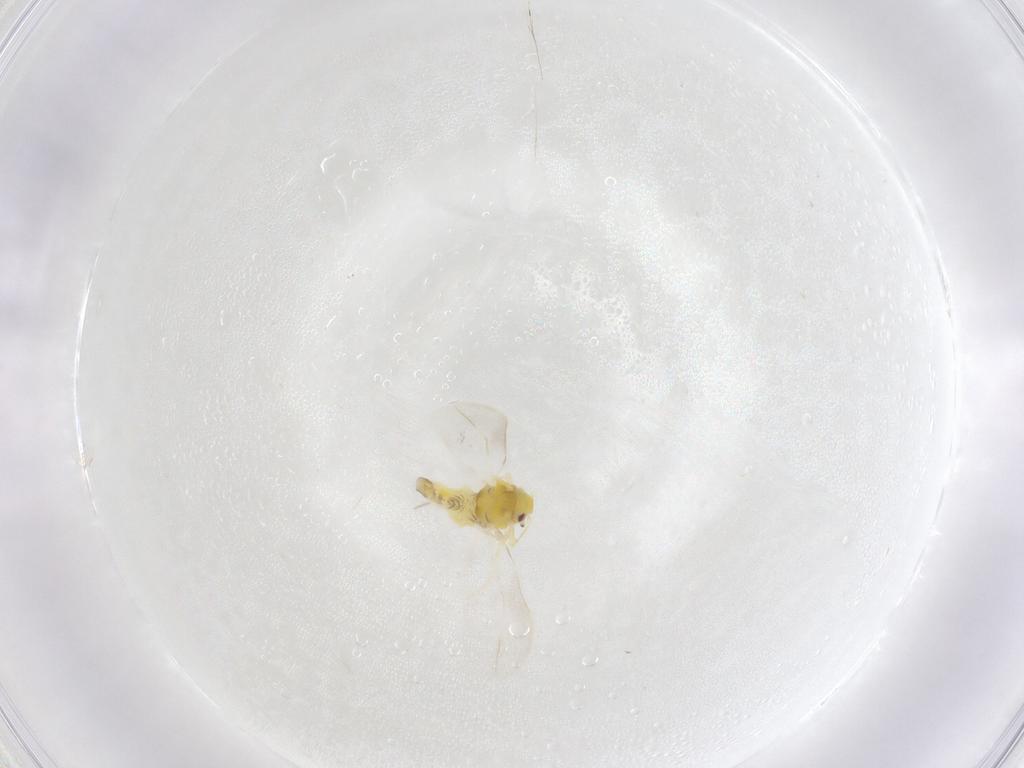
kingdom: Animalia
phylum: Arthropoda
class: Insecta
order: Hemiptera
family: Aleyrodidae
